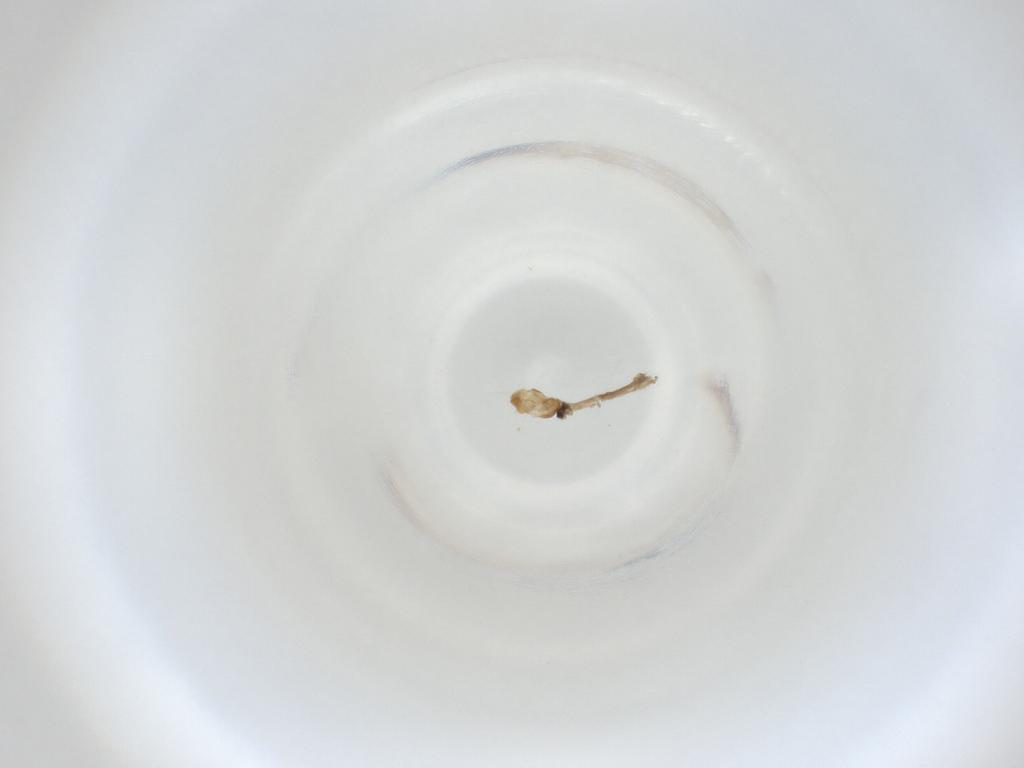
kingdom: Animalia
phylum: Arthropoda
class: Insecta
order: Diptera
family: Cecidomyiidae
